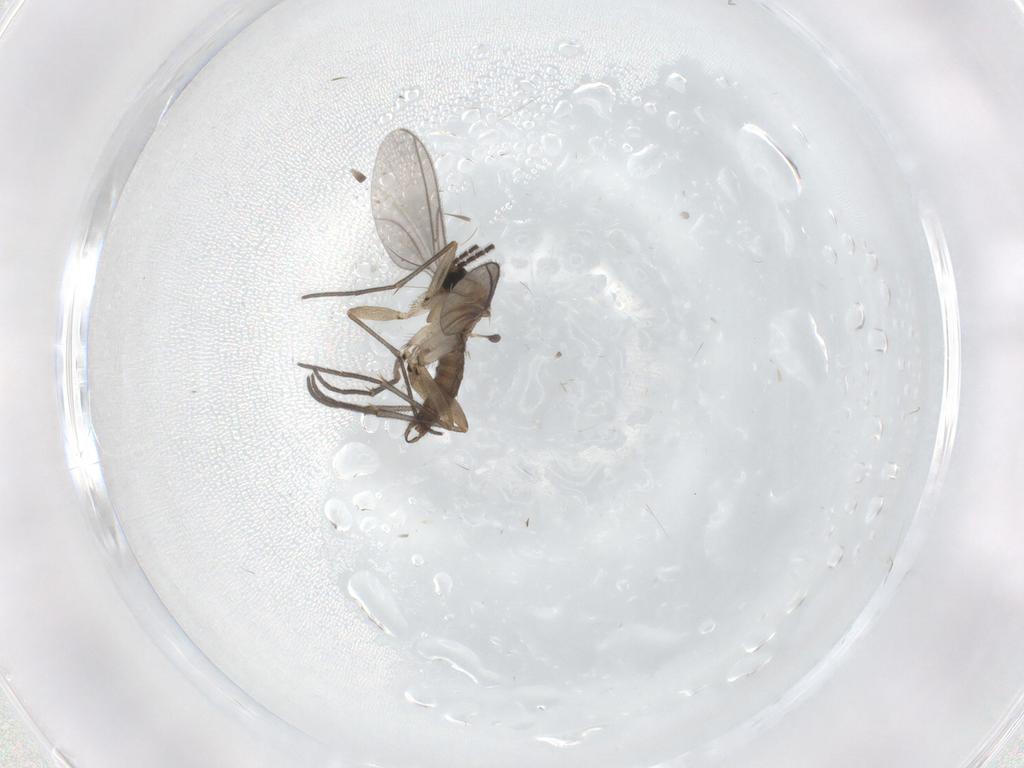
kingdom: Animalia
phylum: Arthropoda
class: Insecta
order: Diptera
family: Sciaridae
